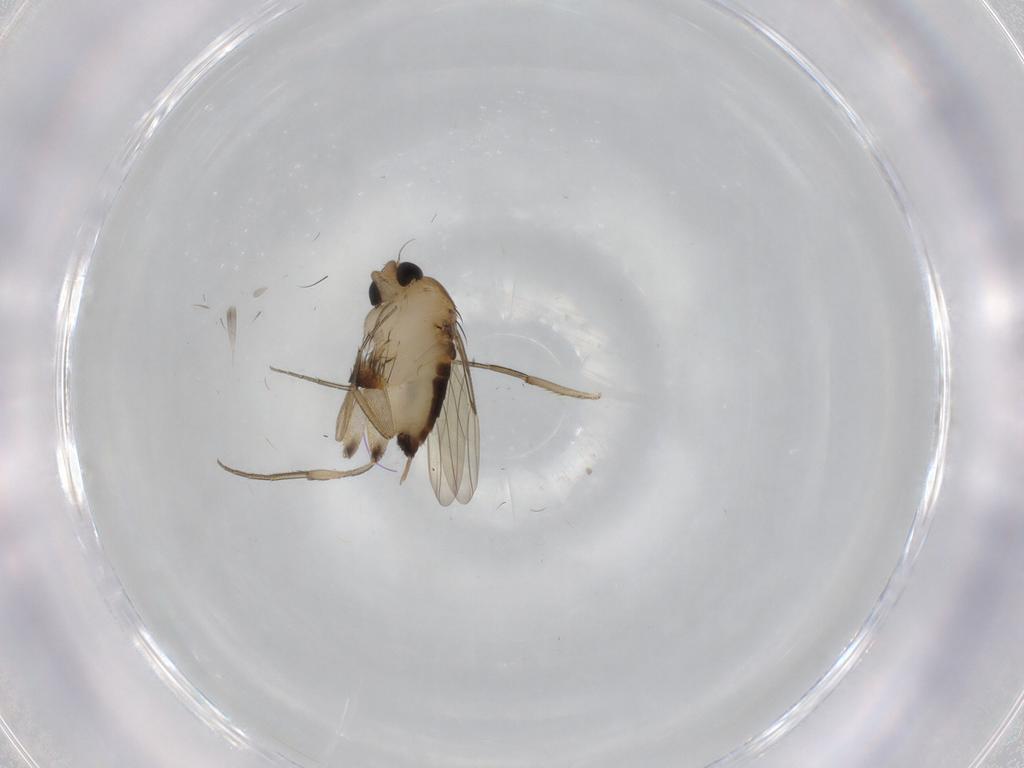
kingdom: Animalia
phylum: Arthropoda
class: Insecta
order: Diptera
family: Phoridae
